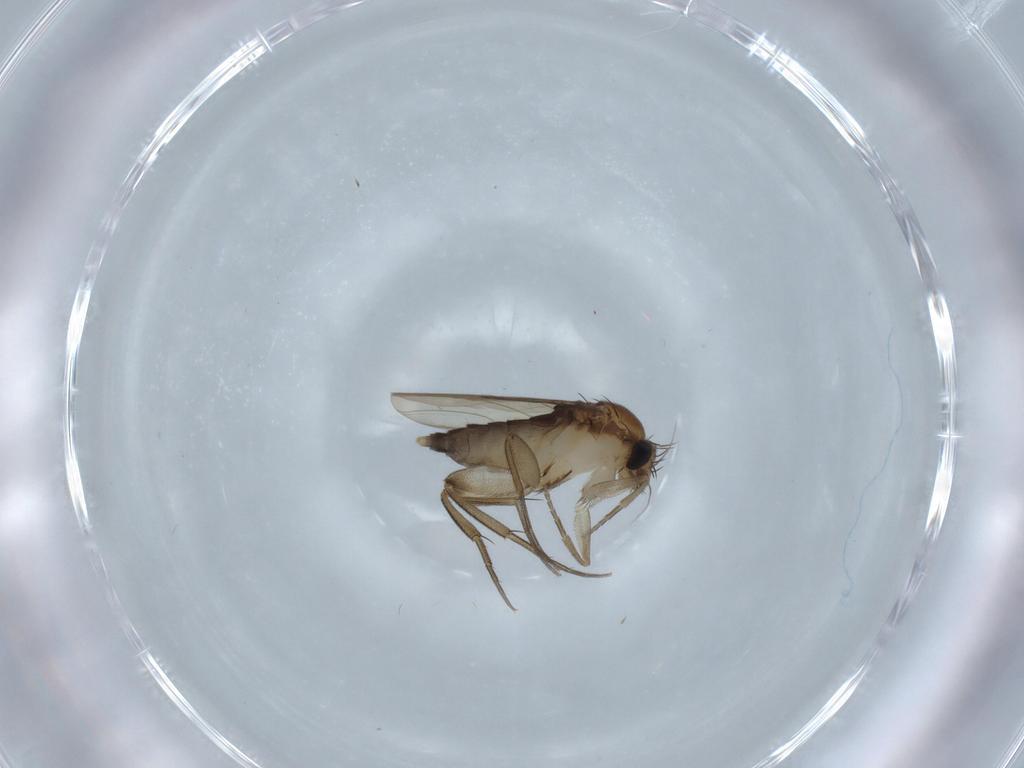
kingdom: Animalia
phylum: Arthropoda
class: Insecta
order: Diptera
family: Phoridae
